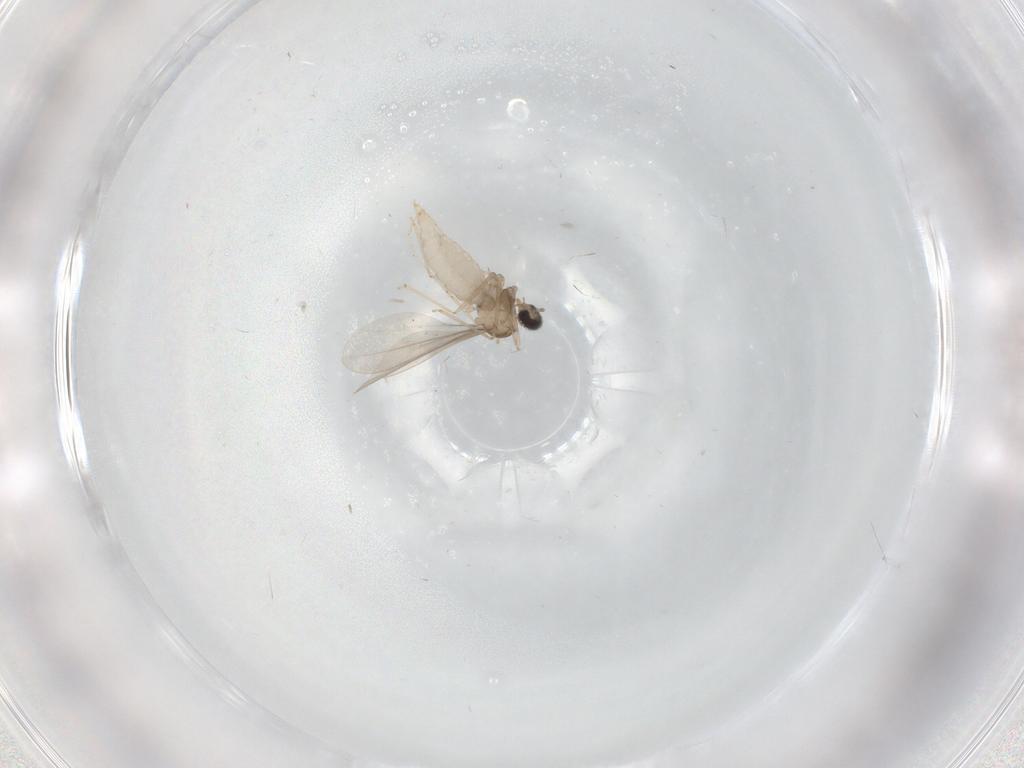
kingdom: Animalia
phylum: Arthropoda
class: Insecta
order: Diptera
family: Cecidomyiidae
